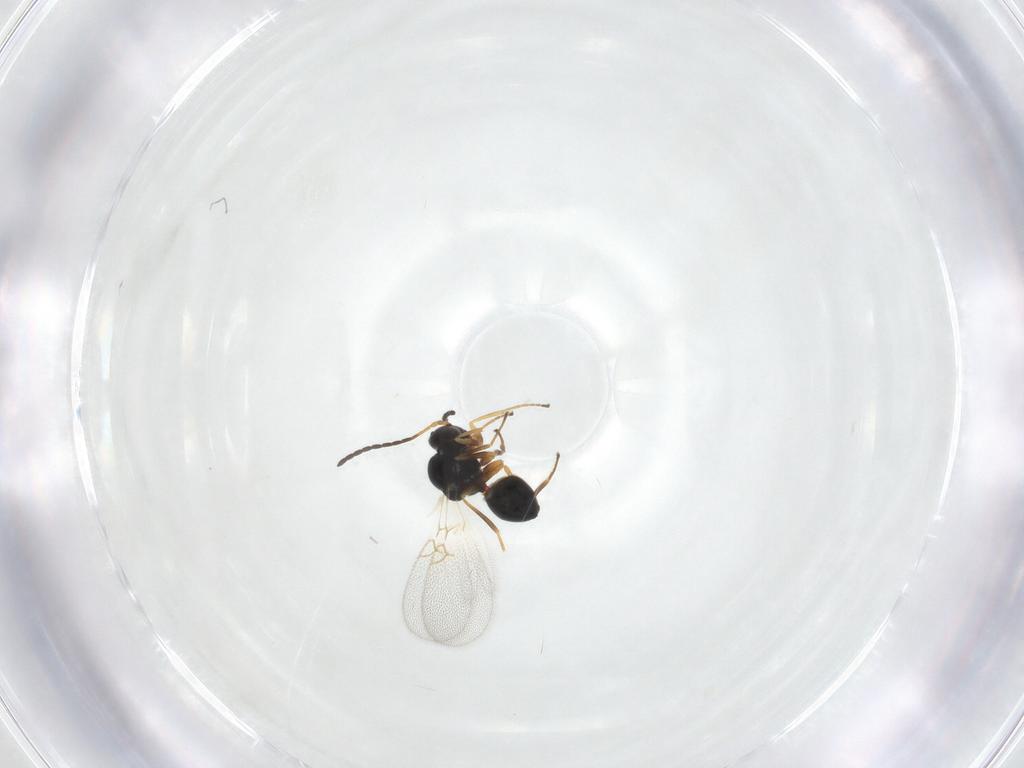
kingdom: Animalia
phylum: Arthropoda
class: Insecta
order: Hymenoptera
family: Figitidae
